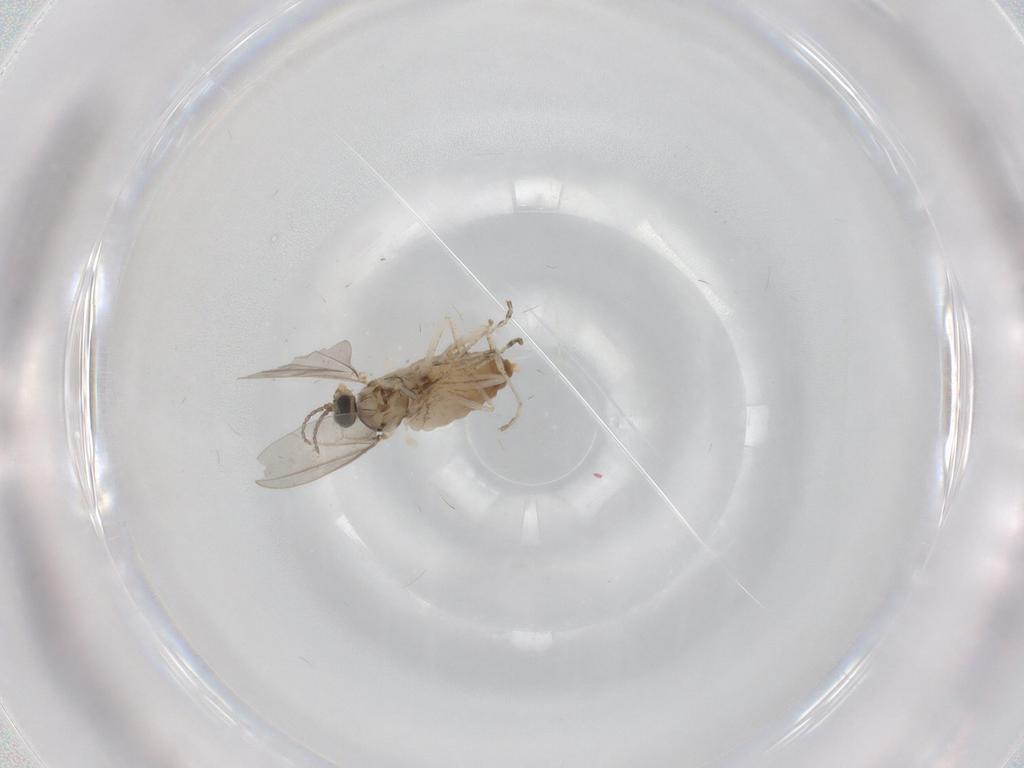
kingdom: Animalia
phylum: Arthropoda
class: Insecta
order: Diptera
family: Cecidomyiidae
